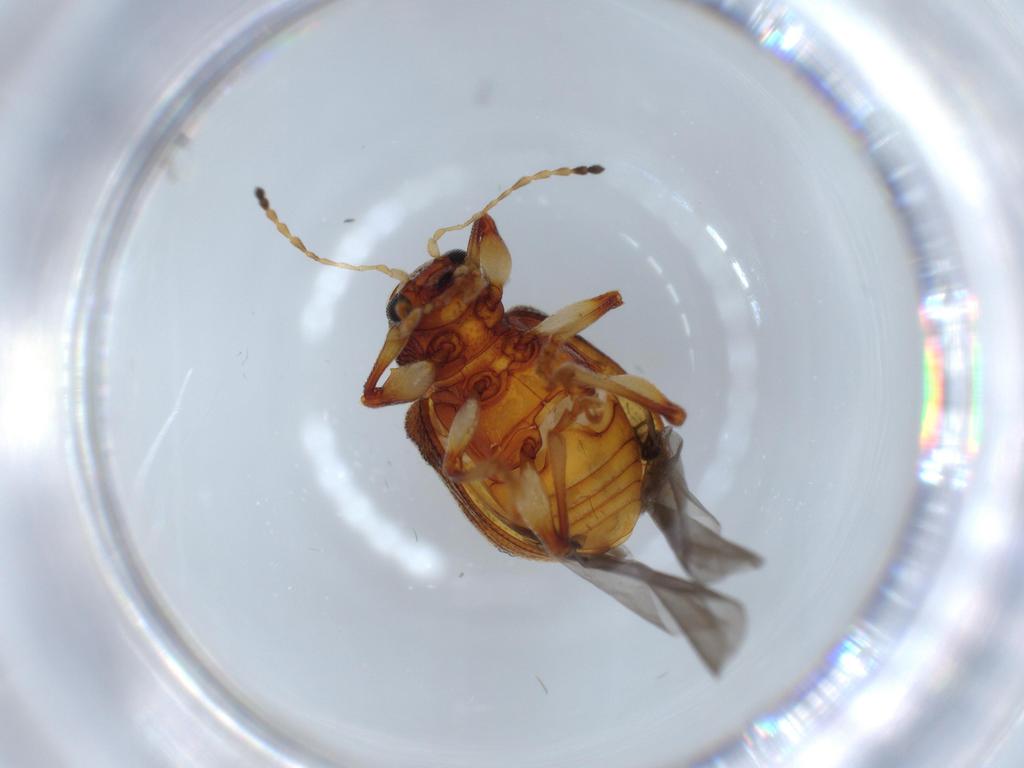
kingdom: Animalia
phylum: Arthropoda
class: Insecta
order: Coleoptera
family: Chrysomelidae
